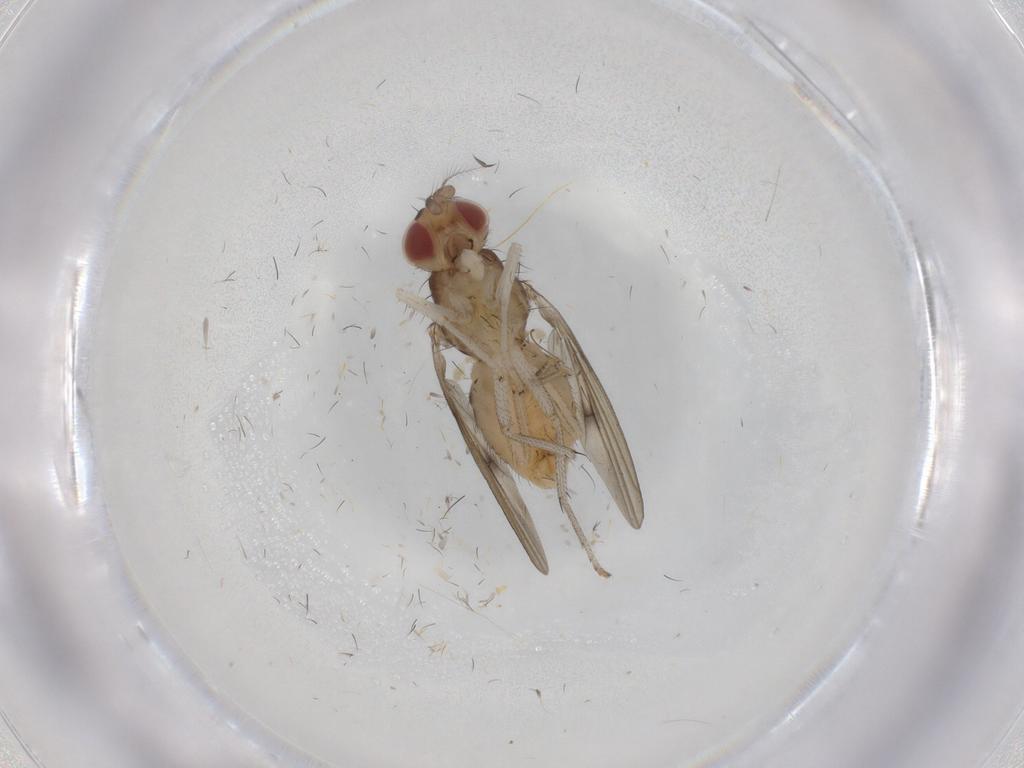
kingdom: Animalia
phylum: Arthropoda
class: Insecta
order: Diptera
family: Lauxaniidae
